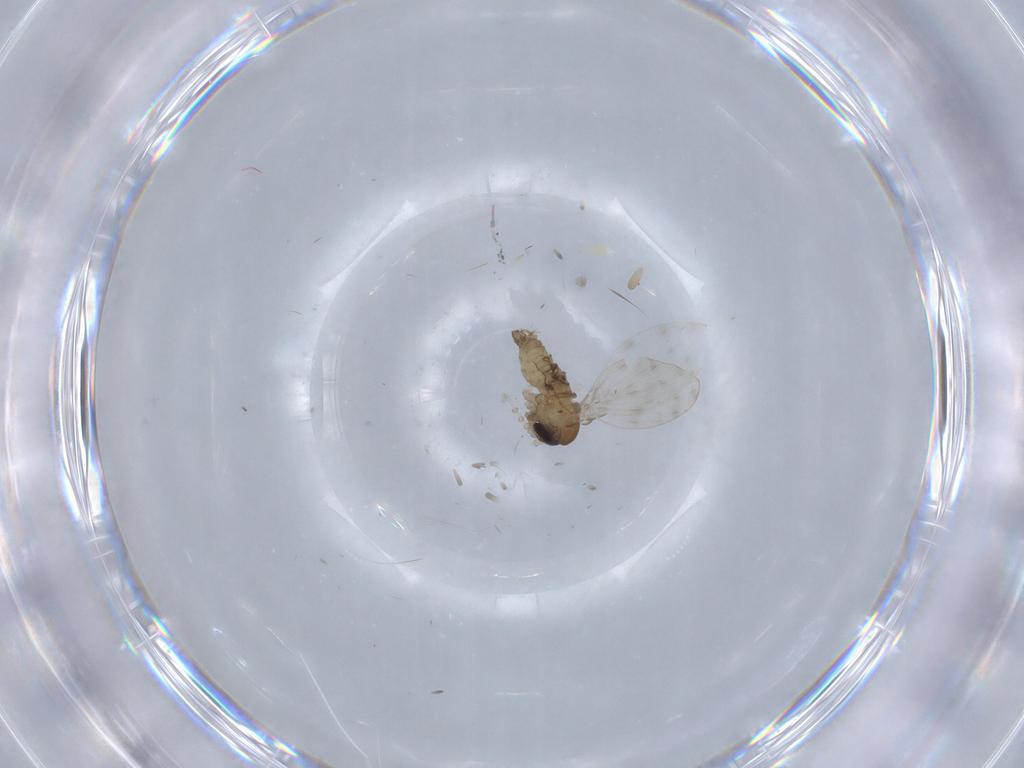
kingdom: Animalia
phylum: Arthropoda
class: Insecta
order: Diptera
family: Psychodidae
